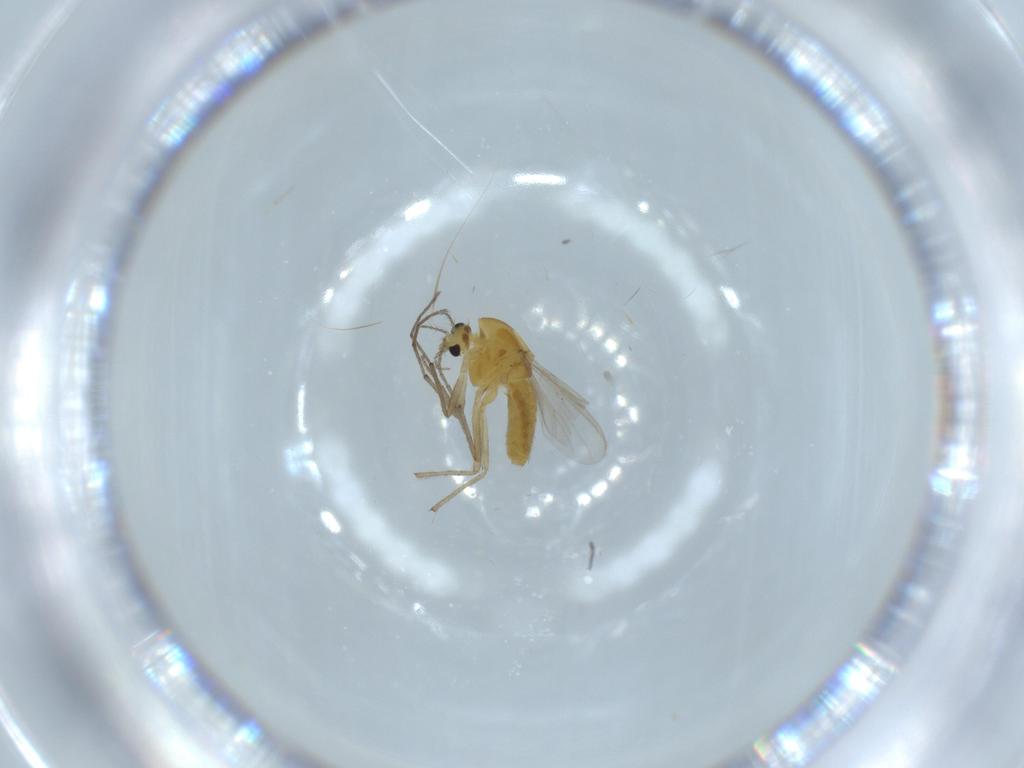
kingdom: Animalia
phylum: Arthropoda
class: Insecta
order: Diptera
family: Chironomidae
